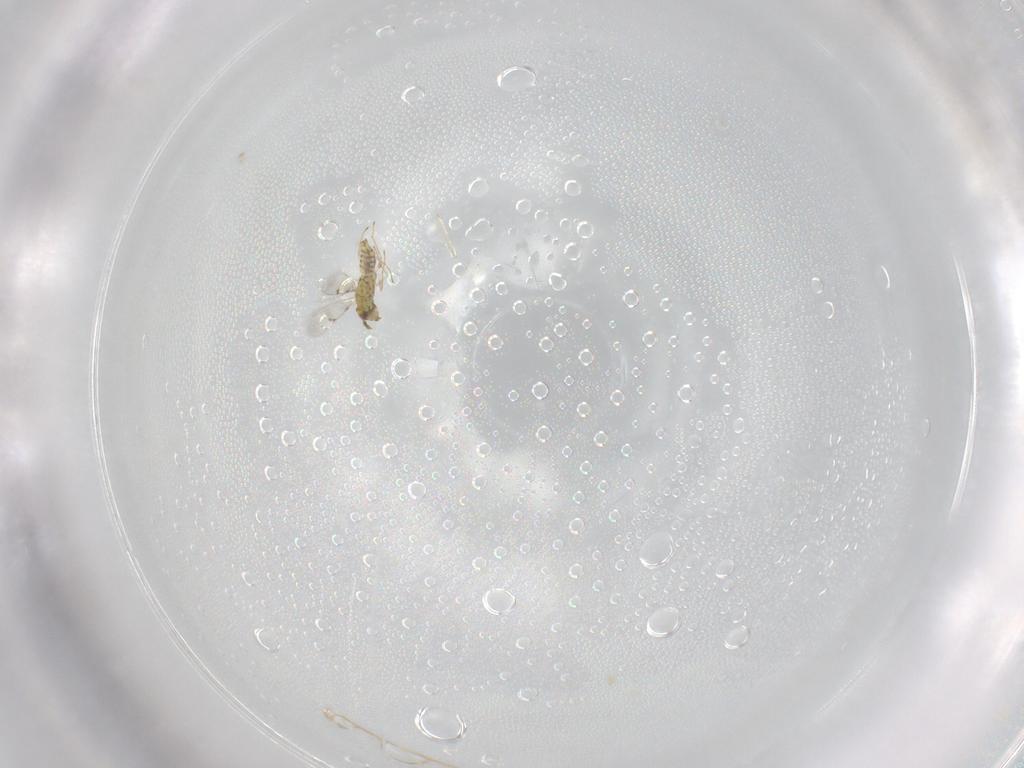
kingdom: Animalia
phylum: Arthropoda
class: Insecta
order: Hymenoptera
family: Eulophidae
